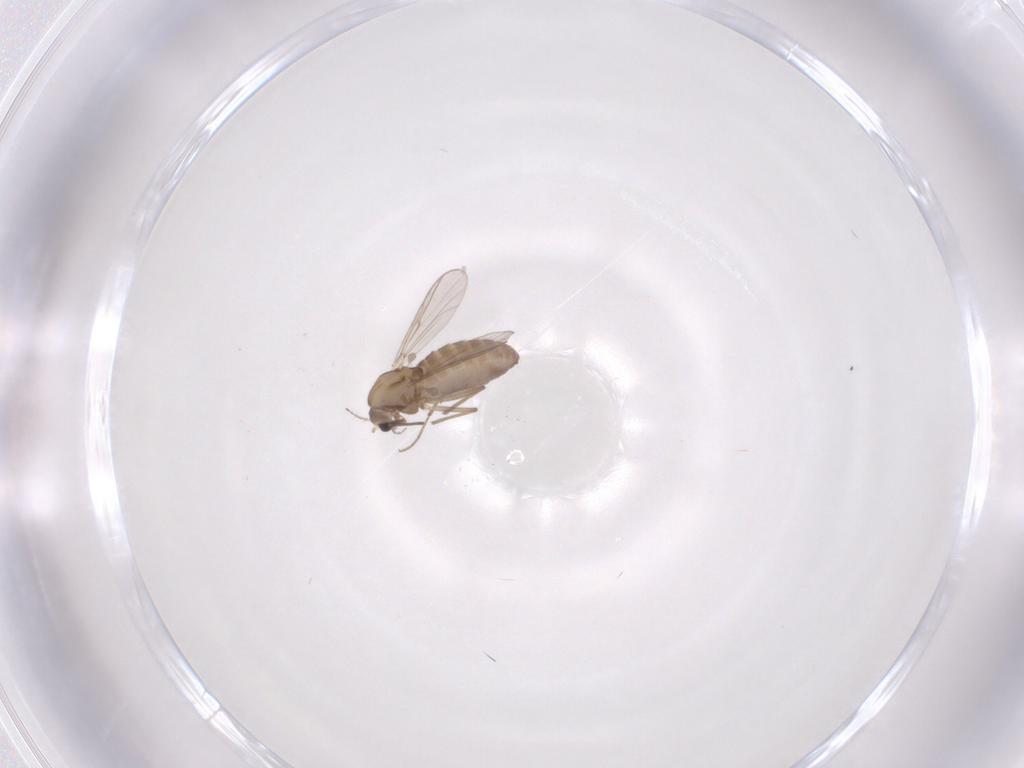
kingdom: Animalia
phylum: Arthropoda
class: Insecta
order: Diptera
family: Chironomidae
